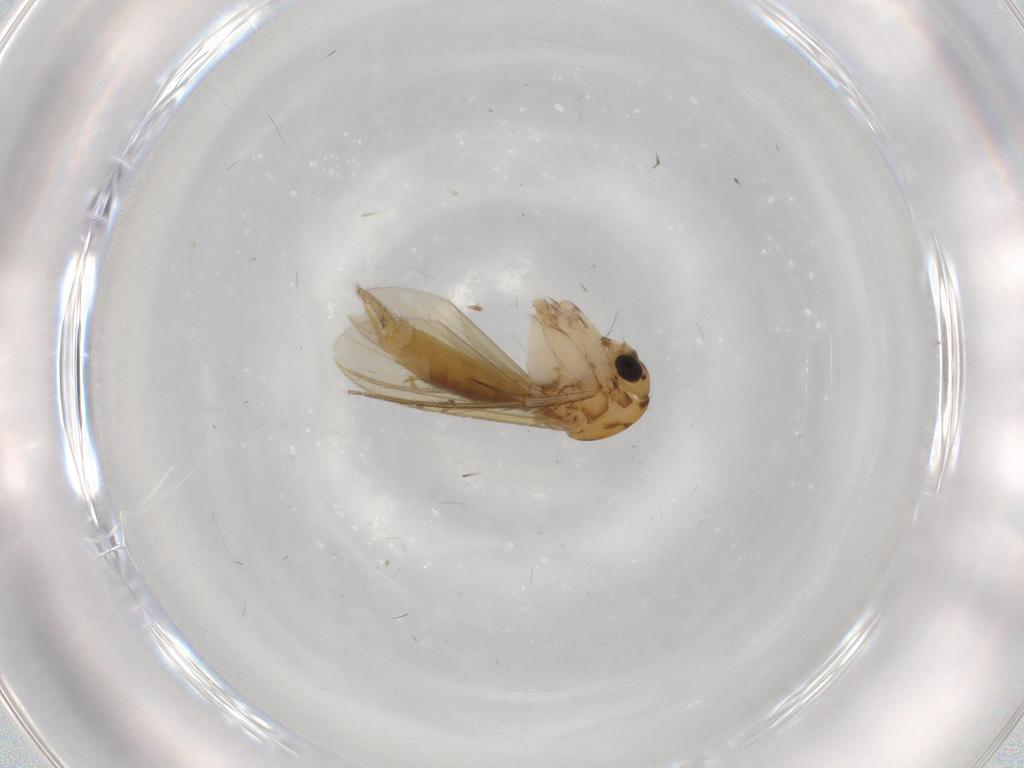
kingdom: Animalia
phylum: Arthropoda
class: Insecta
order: Diptera
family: Mycetophilidae
